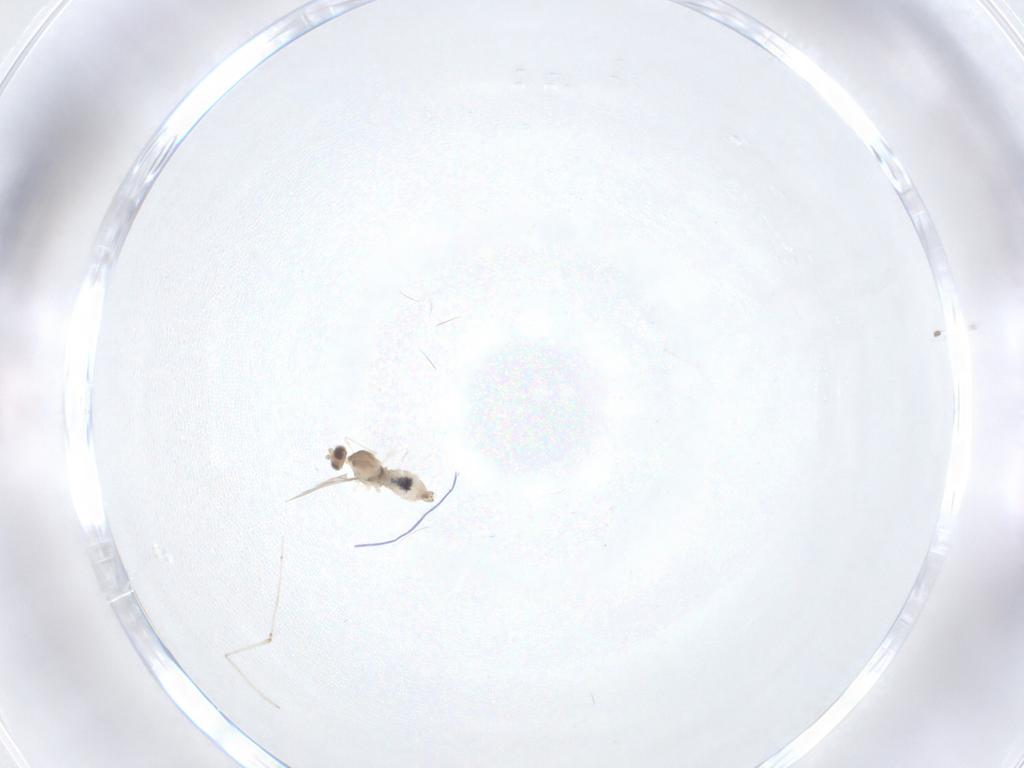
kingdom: Animalia
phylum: Arthropoda
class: Insecta
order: Diptera
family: Cecidomyiidae
